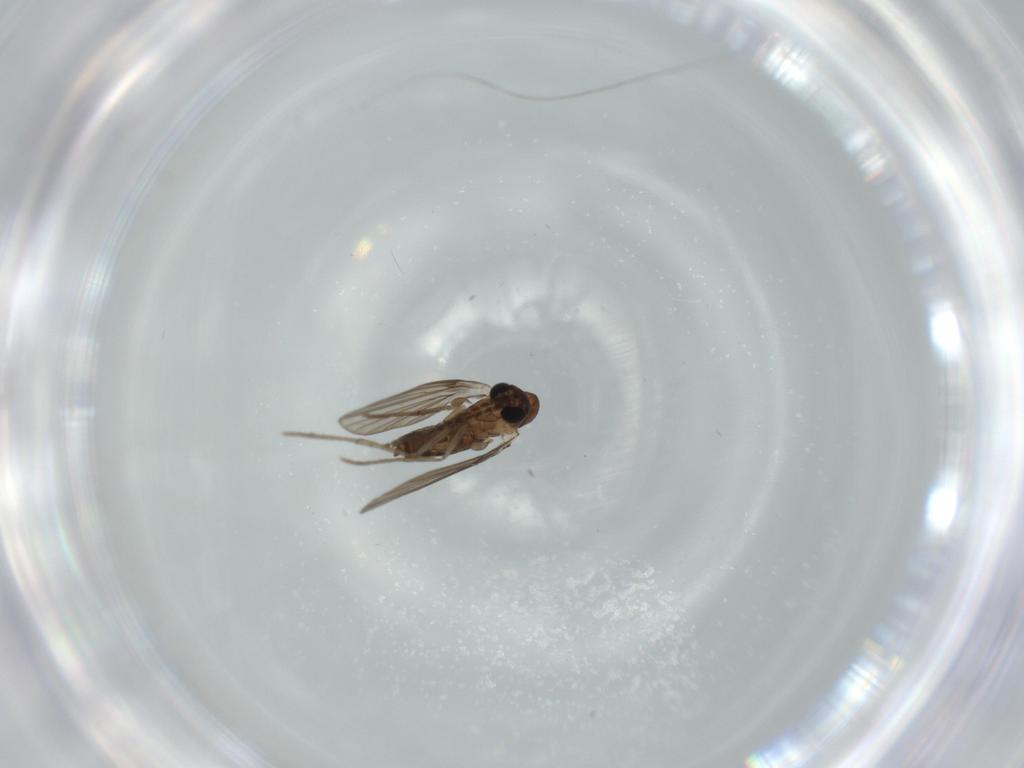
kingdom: Animalia
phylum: Arthropoda
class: Insecta
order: Diptera
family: Psychodidae
